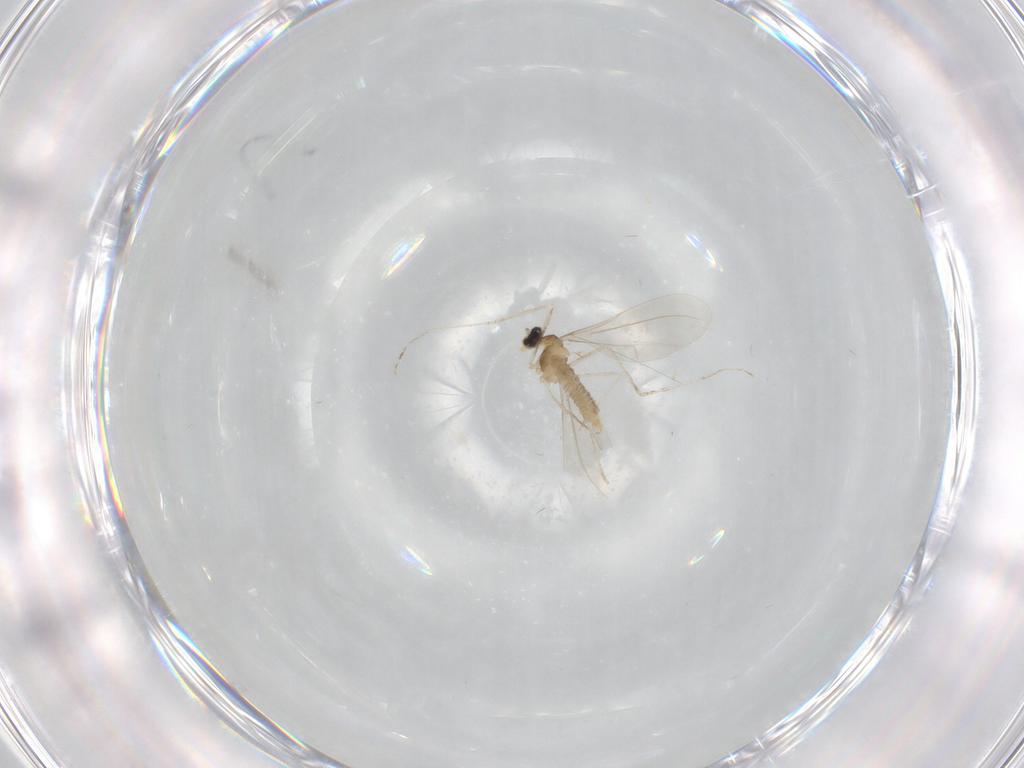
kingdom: Animalia
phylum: Arthropoda
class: Insecta
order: Diptera
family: Cecidomyiidae
